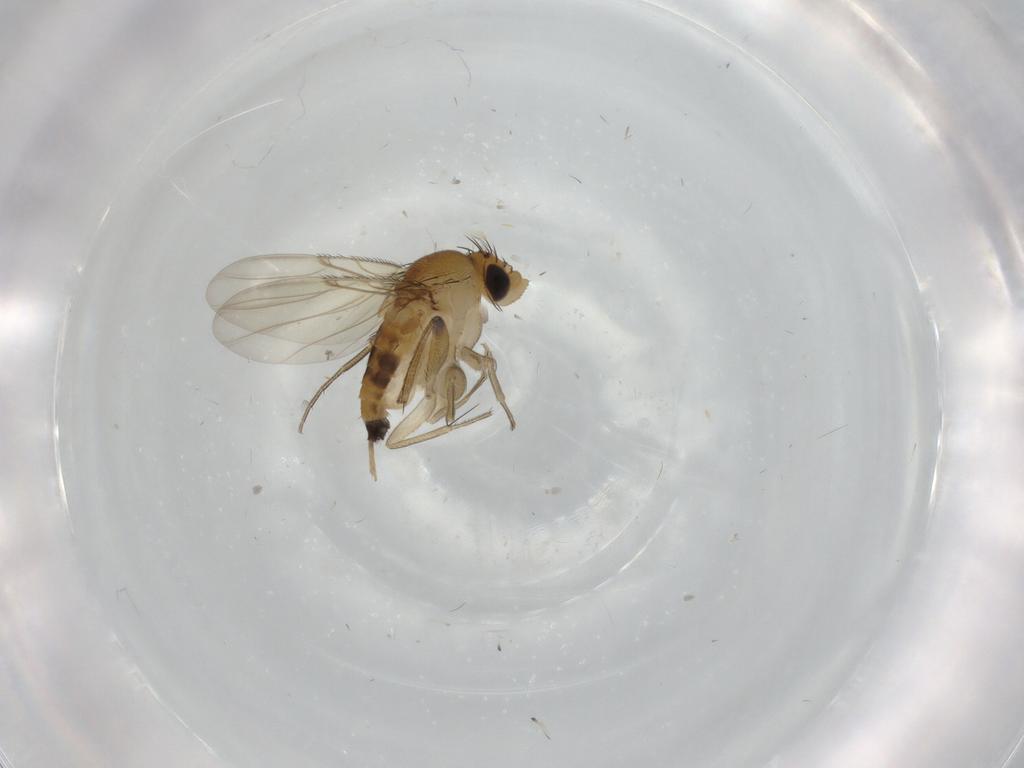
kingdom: Animalia
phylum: Arthropoda
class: Insecta
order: Diptera
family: Phoridae
